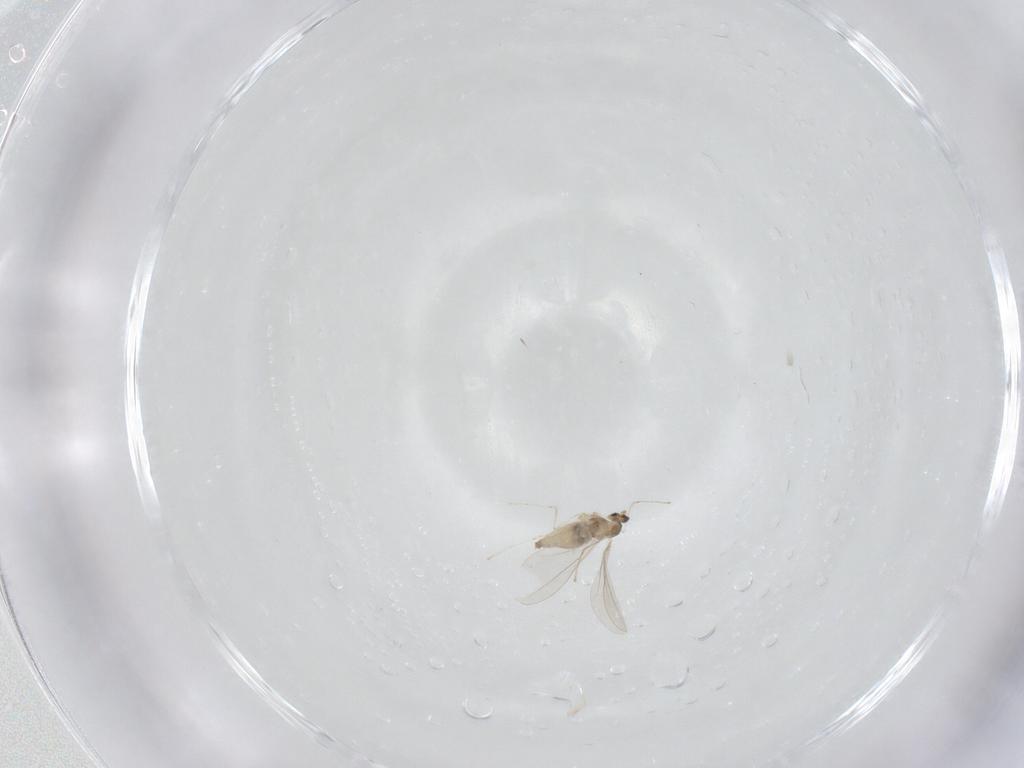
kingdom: Animalia
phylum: Arthropoda
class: Insecta
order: Diptera
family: Cecidomyiidae
